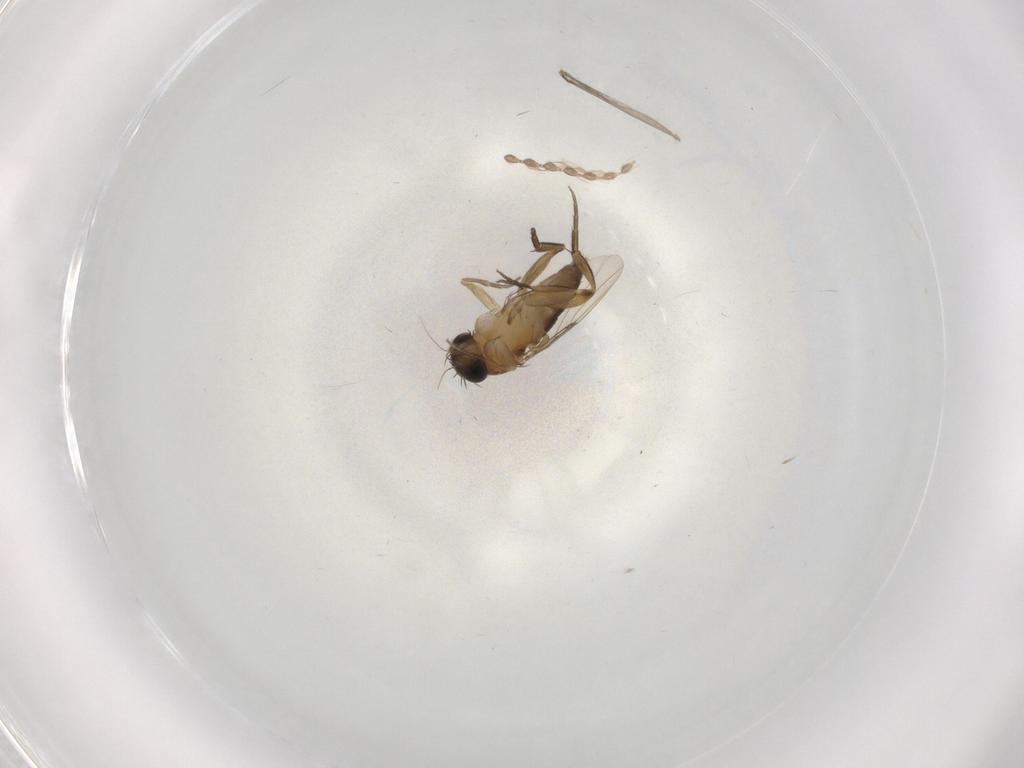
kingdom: Animalia
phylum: Arthropoda
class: Insecta
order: Diptera
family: Phoridae
